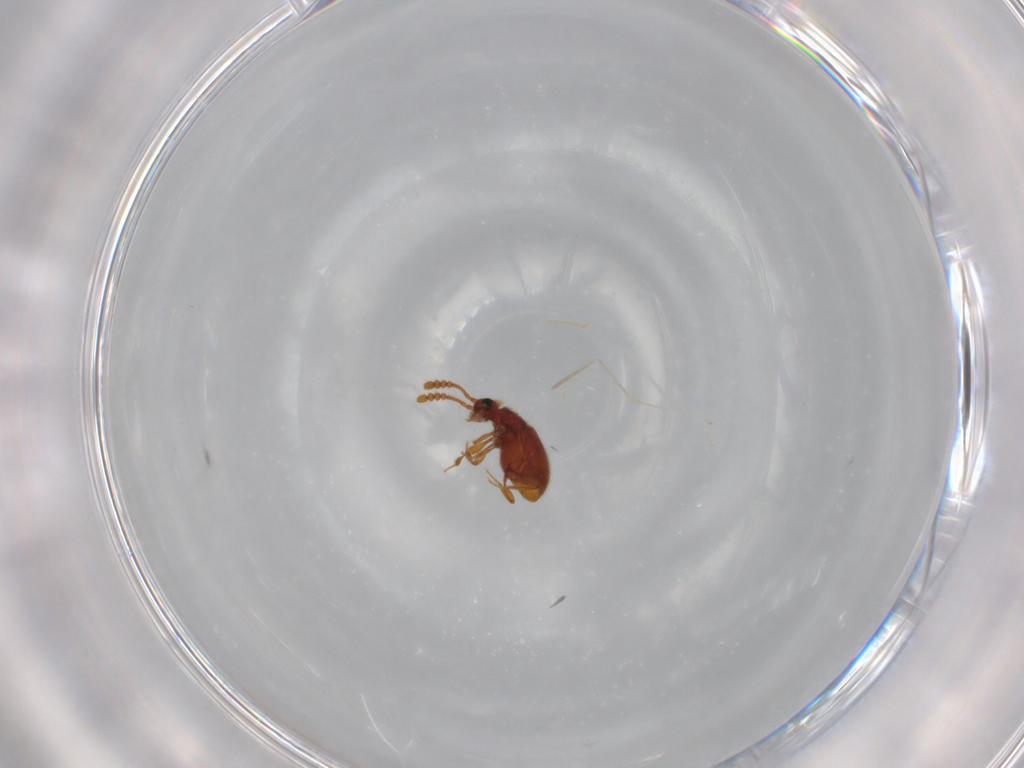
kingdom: Animalia
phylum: Arthropoda
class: Insecta
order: Coleoptera
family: Staphylinidae
